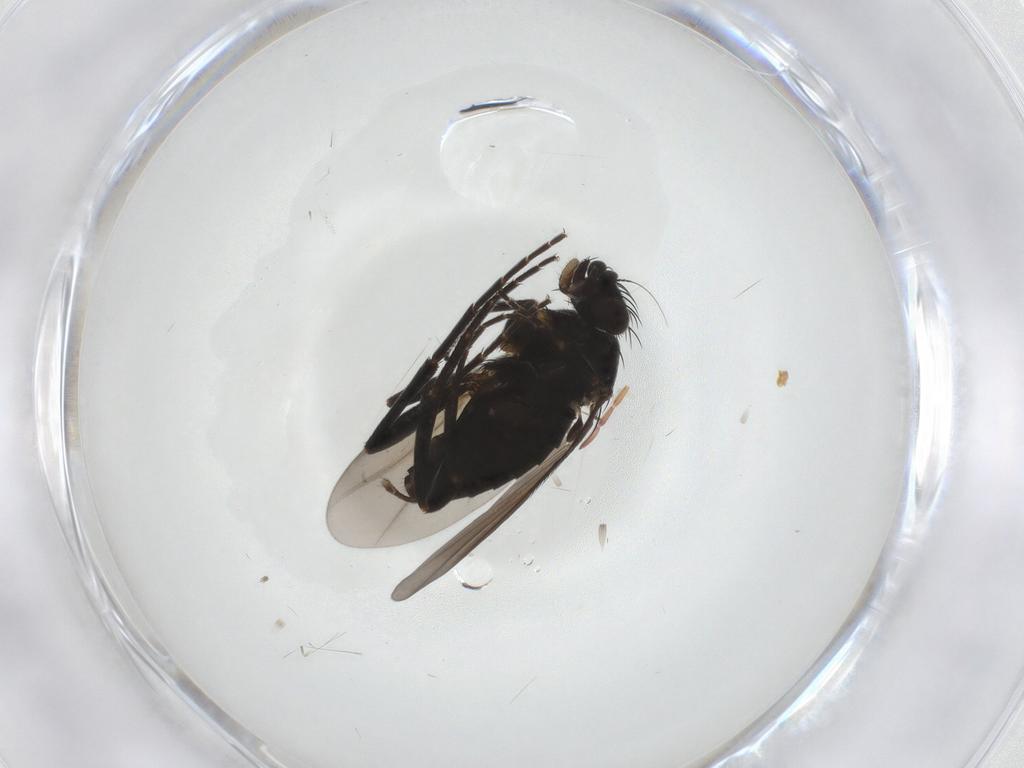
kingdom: Animalia
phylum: Arthropoda
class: Insecta
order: Diptera
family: Phoridae
